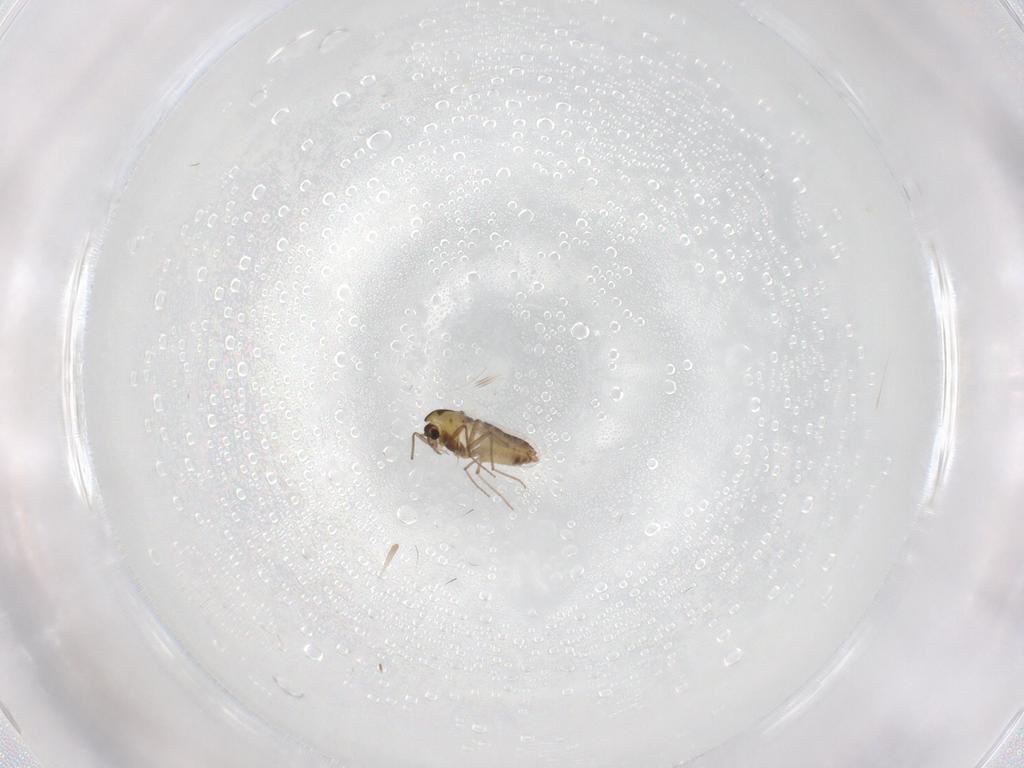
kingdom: Animalia
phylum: Arthropoda
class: Insecta
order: Diptera
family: Chironomidae
